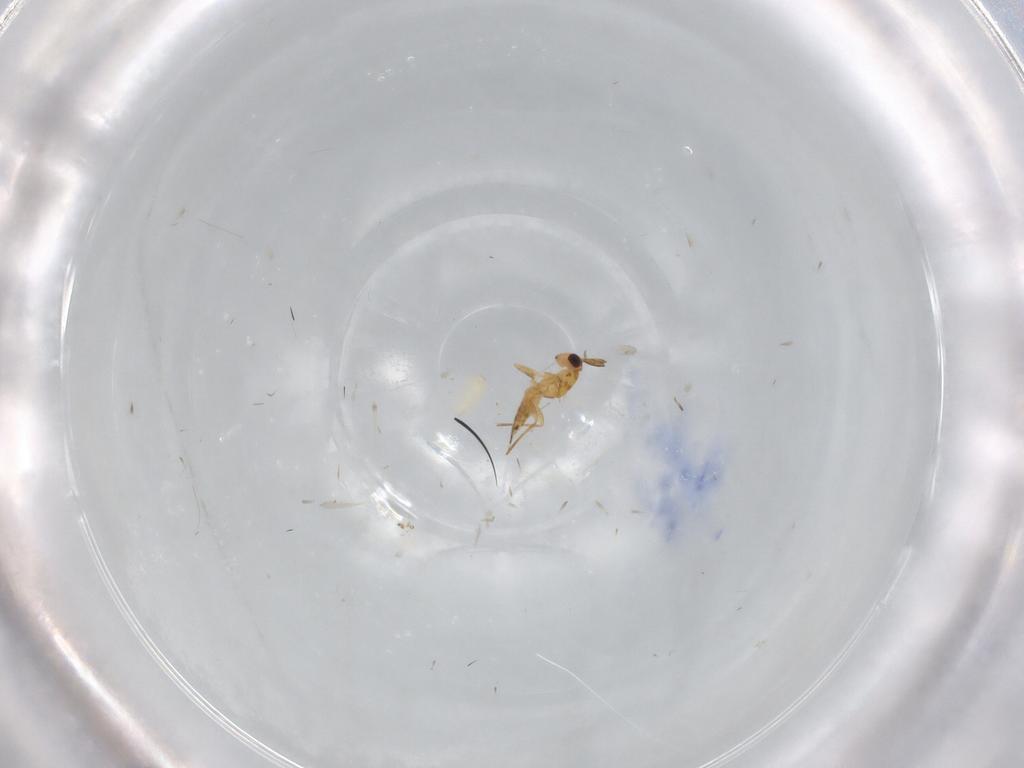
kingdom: Animalia
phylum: Arthropoda
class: Insecta
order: Hymenoptera
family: Mymaridae
